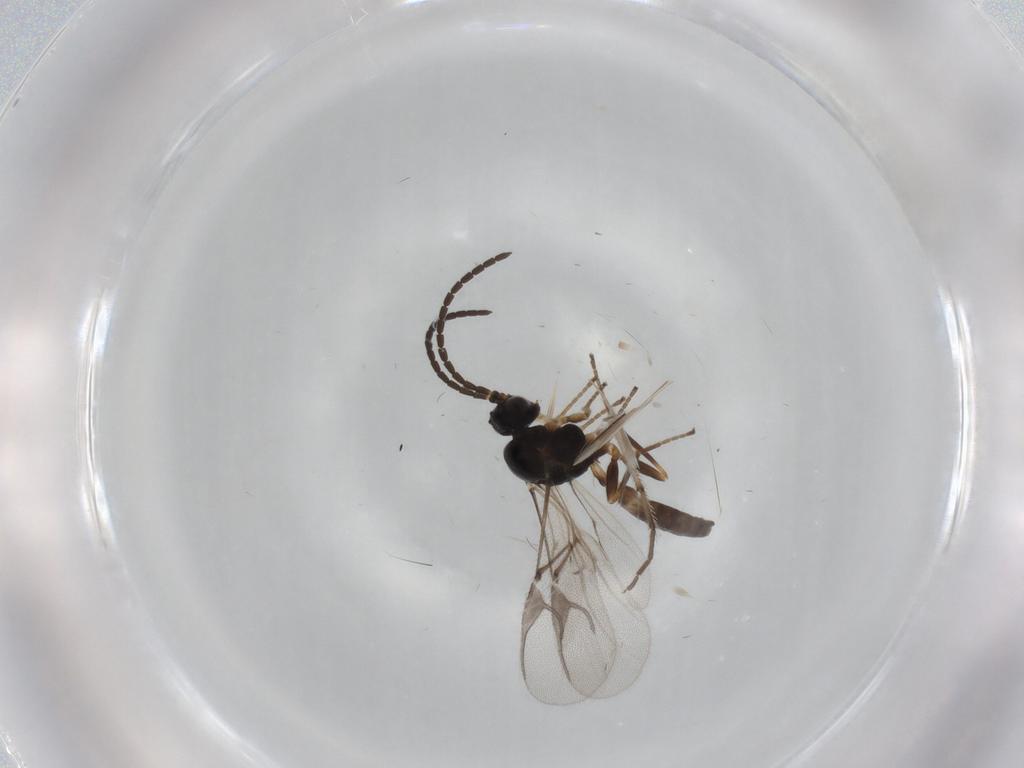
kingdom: Animalia
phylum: Arthropoda
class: Insecta
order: Hymenoptera
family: Braconidae
